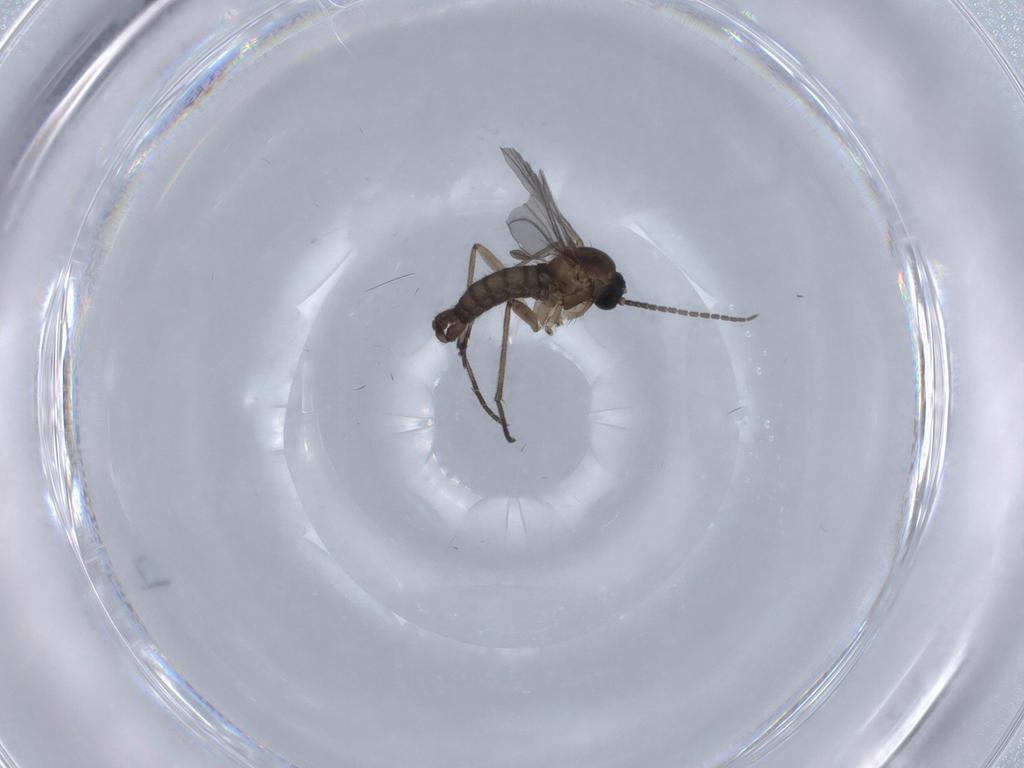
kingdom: Animalia
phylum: Arthropoda
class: Insecta
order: Diptera
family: Sciaridae
